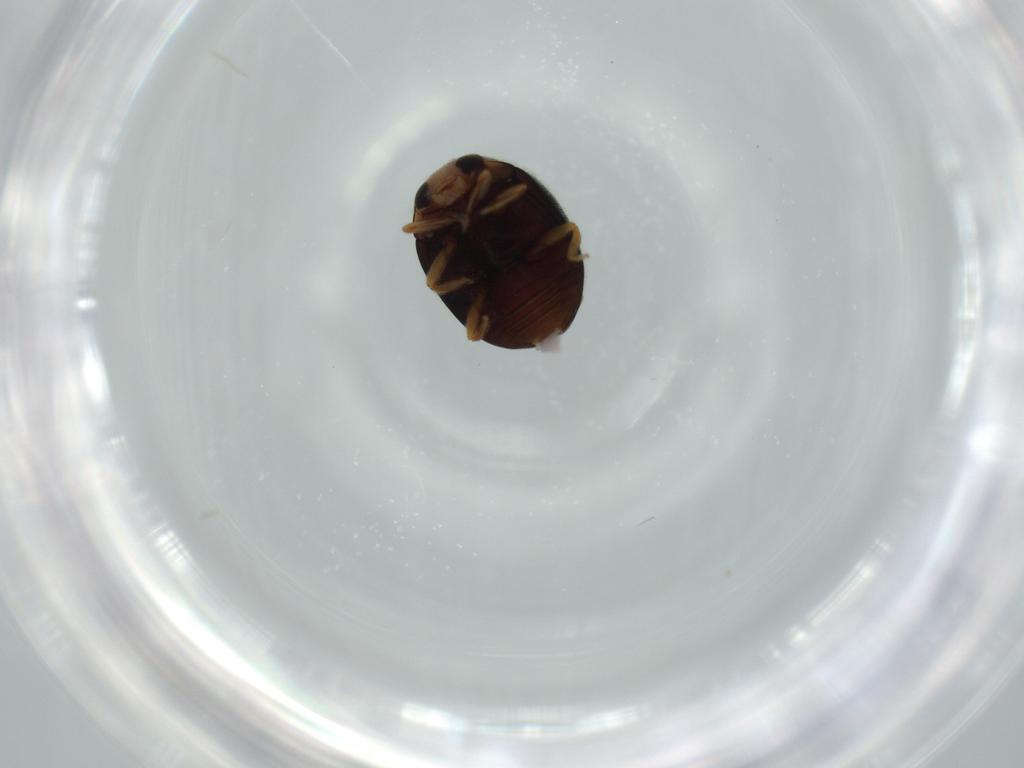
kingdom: Animalia
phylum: Arthropoda
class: Insecta
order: Coleoptera
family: Coccinellidae
